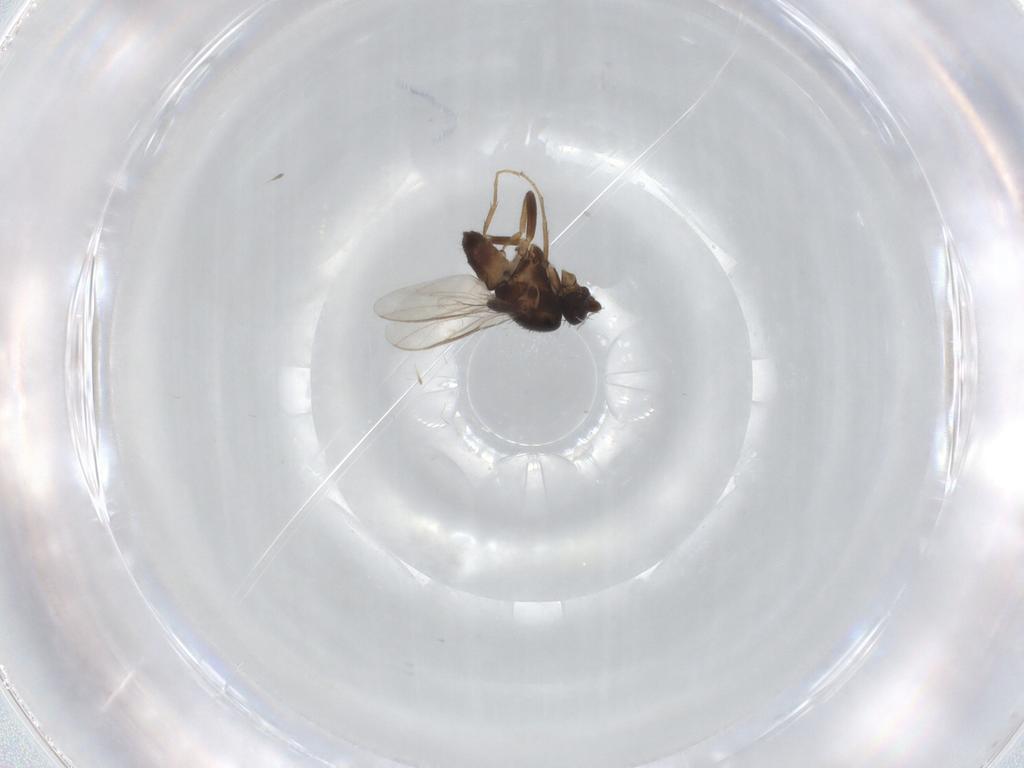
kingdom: Animalia
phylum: Arthropoda
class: Insecta
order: Diptera
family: Sphaeroceridae
